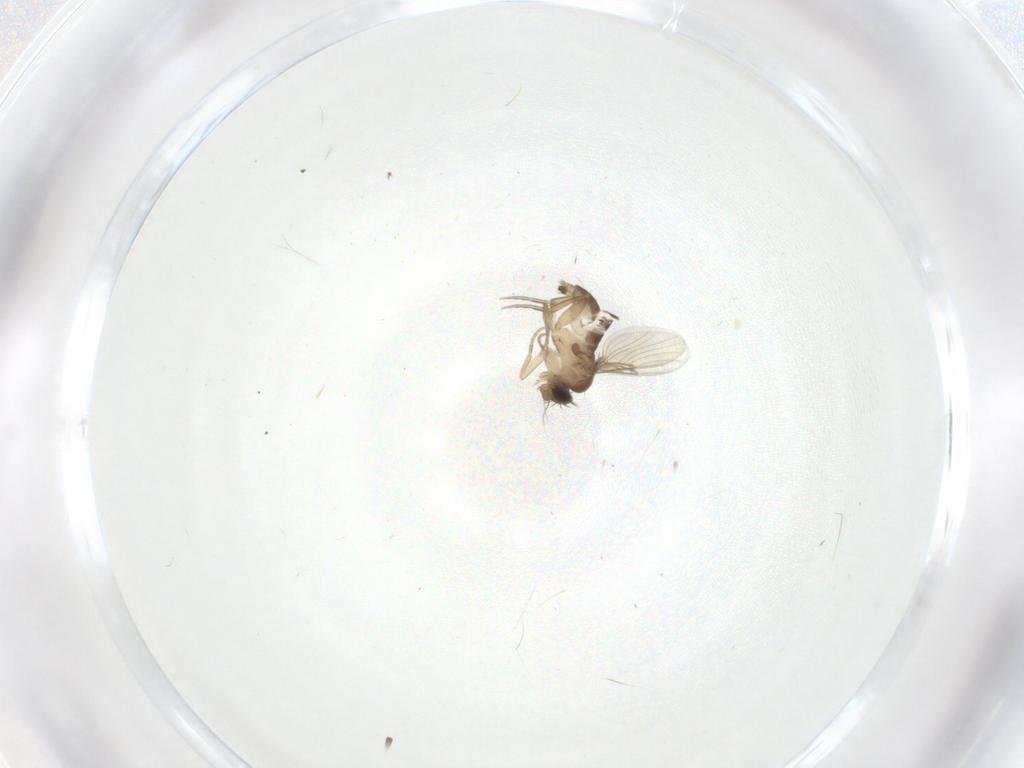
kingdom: Animalia
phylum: Arthropoda
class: Insecta
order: Diptera
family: Phoridae
